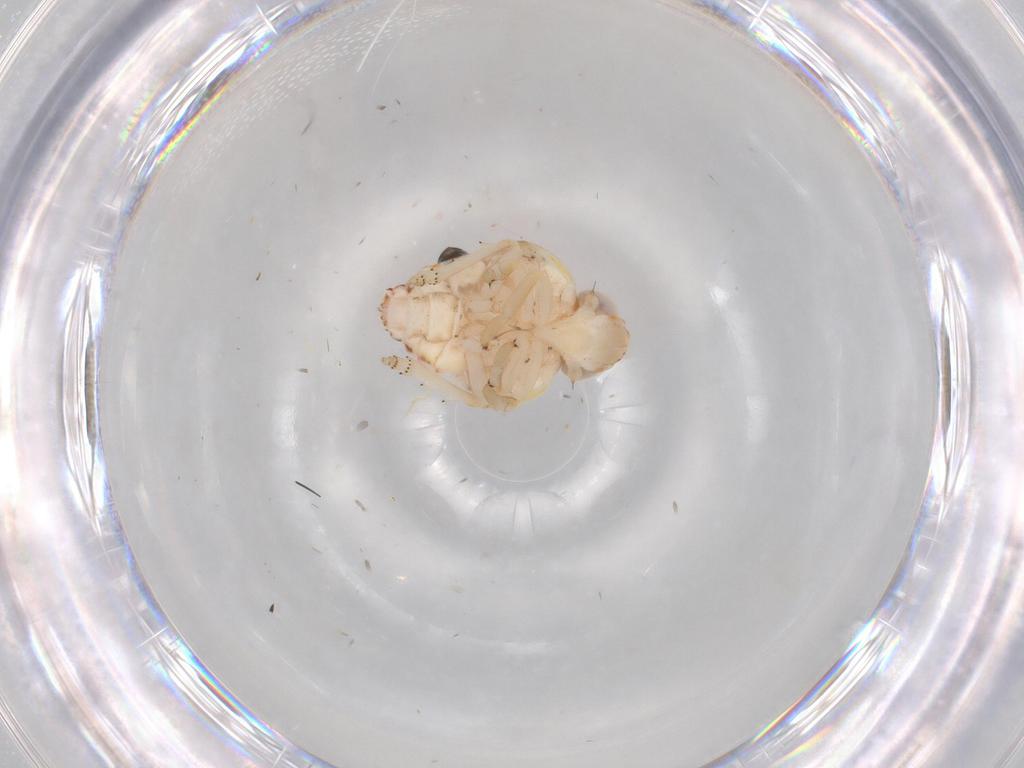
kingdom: Animalia
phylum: Arthropoda
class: Insecta
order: Hemiptera
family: Nogodinidae
